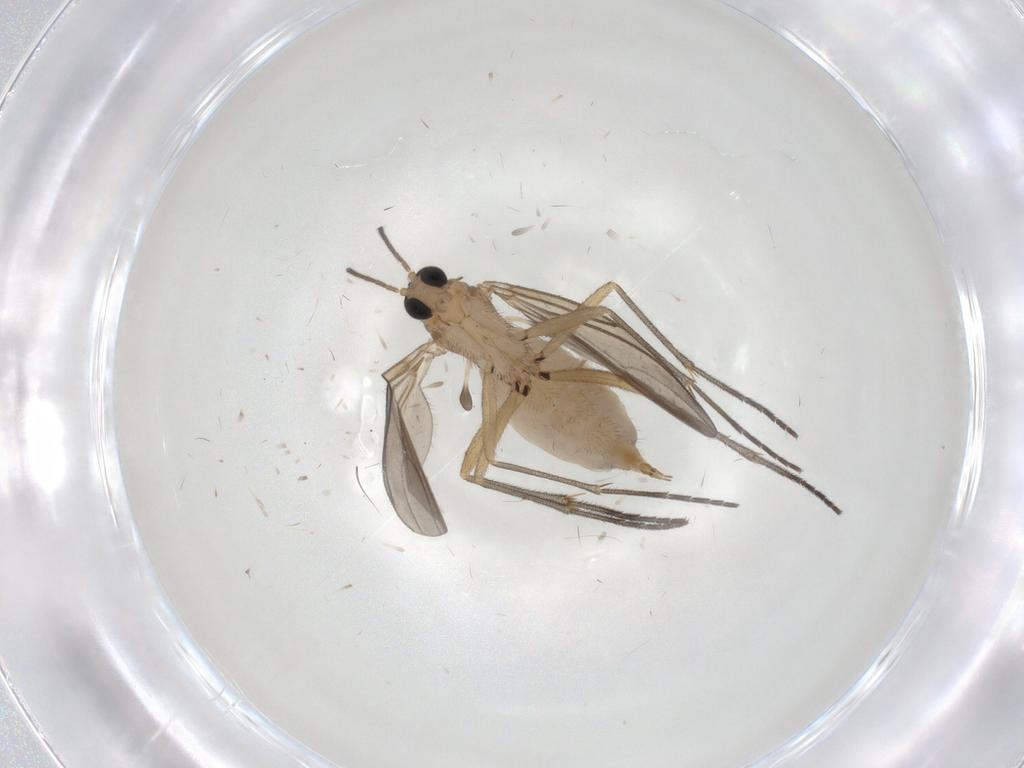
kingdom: Animalia
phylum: Arthropoda
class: Insecta
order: Diptera
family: Sciaridae
